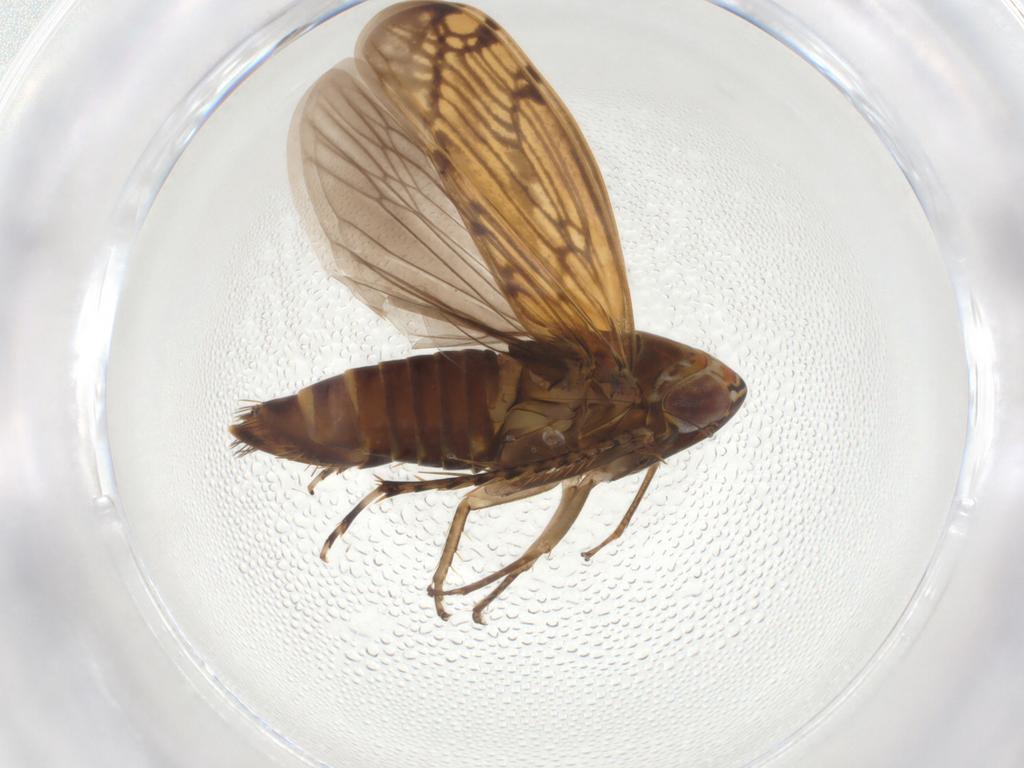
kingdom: Animalia
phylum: Arthropoda
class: Insecta
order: Hemiptera
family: Cicadellidae
